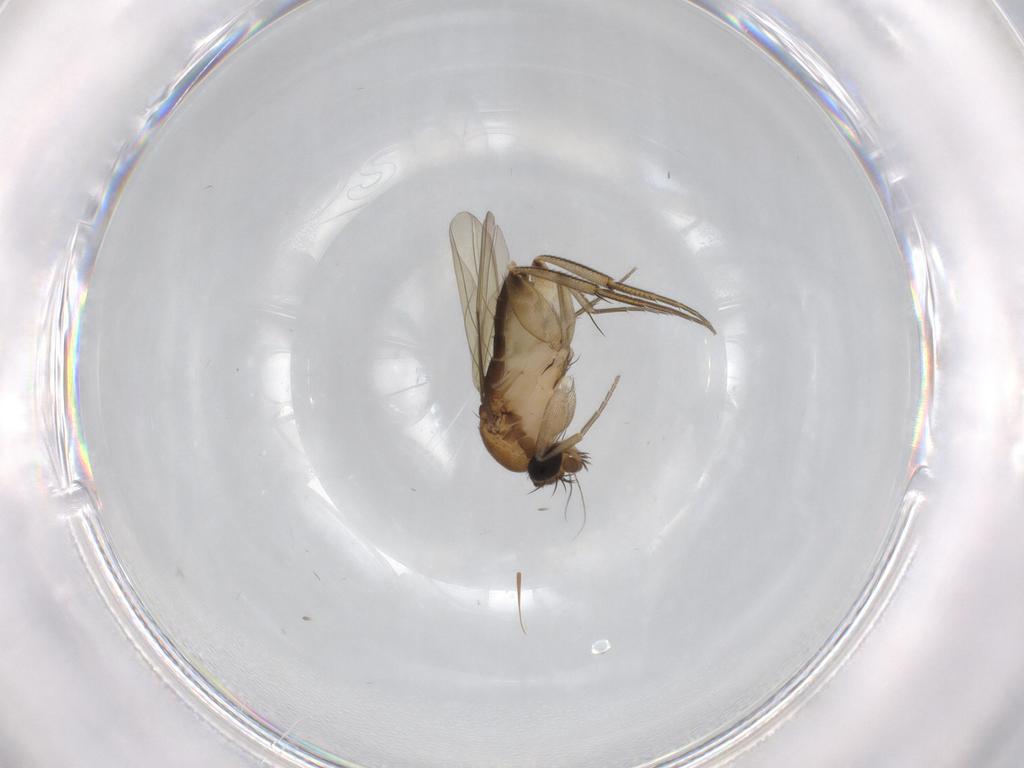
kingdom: Animalia
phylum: Arthropoda
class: Insecta
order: Diptera
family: Phoridae
